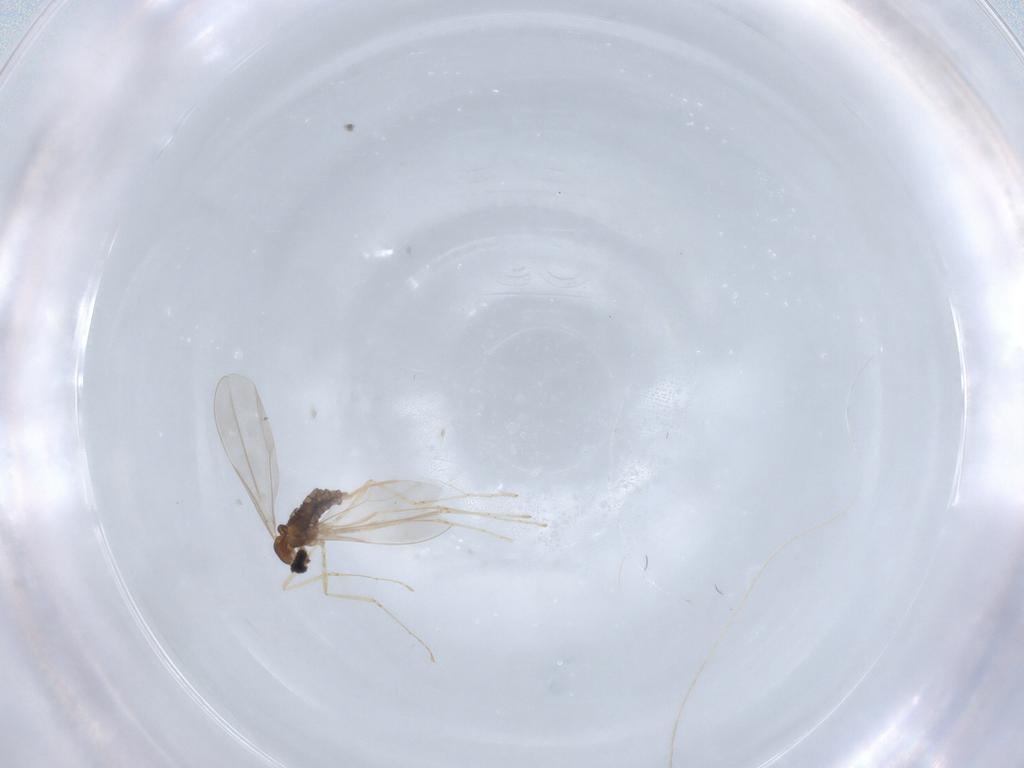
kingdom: Animalia
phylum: Arthropoda
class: Insecta
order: Diptera
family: Cecidomyiidae
